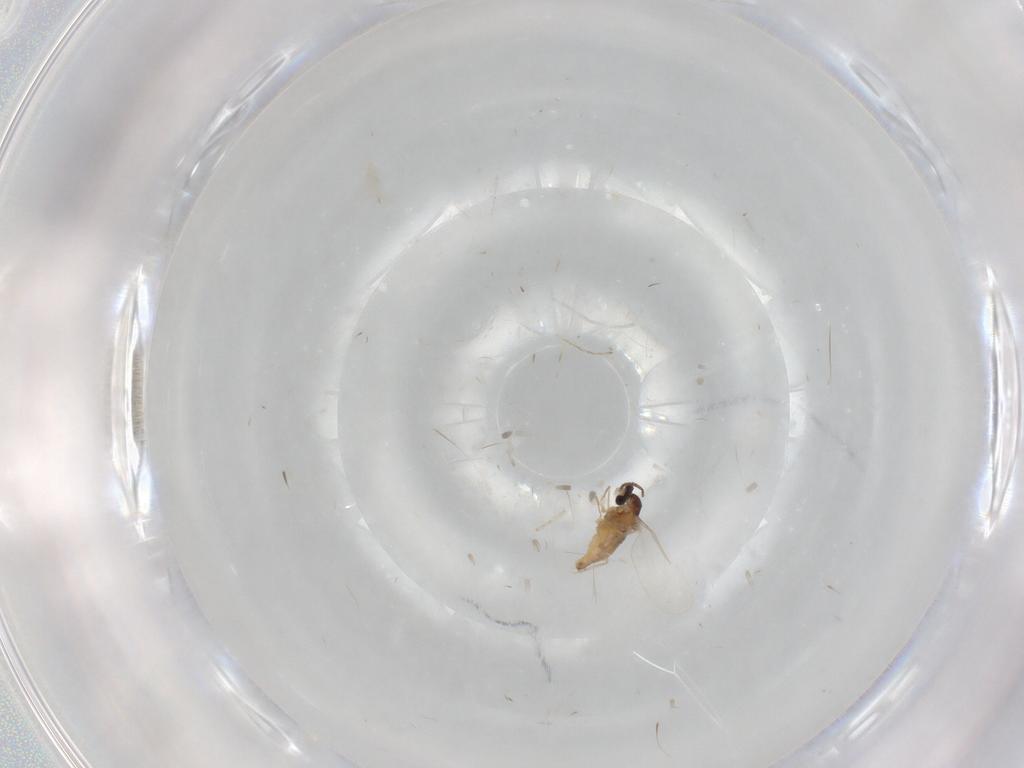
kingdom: Animalia
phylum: Arthropoda
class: Insecta
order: Diptera
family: Cecidomyiidae
